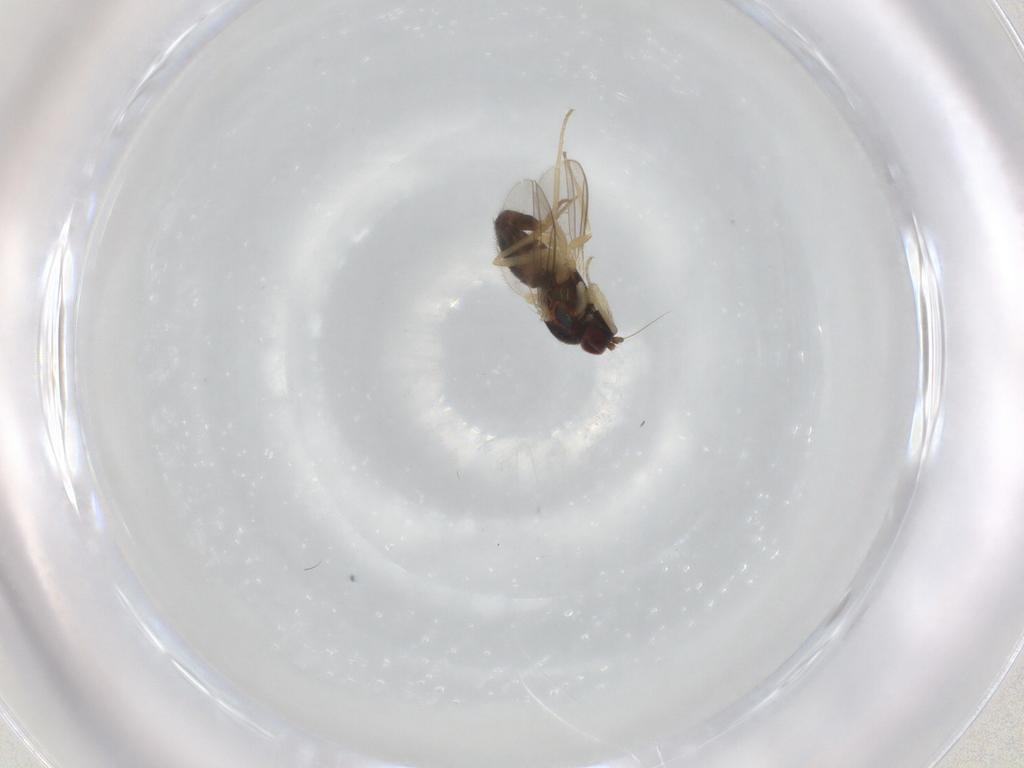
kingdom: Animalia
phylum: Arthropoda
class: Insecta
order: Diptera
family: Dolichopodidae
